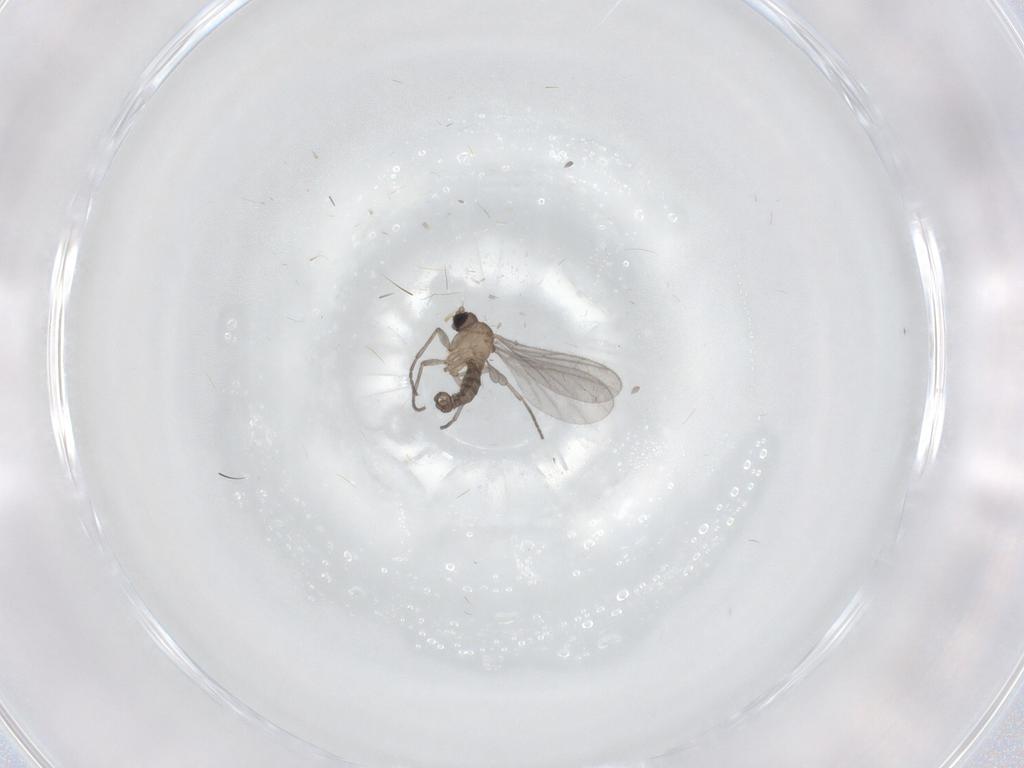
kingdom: Animalia
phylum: Arthropoda
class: Insecta
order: Diptera
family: Sciaridae
